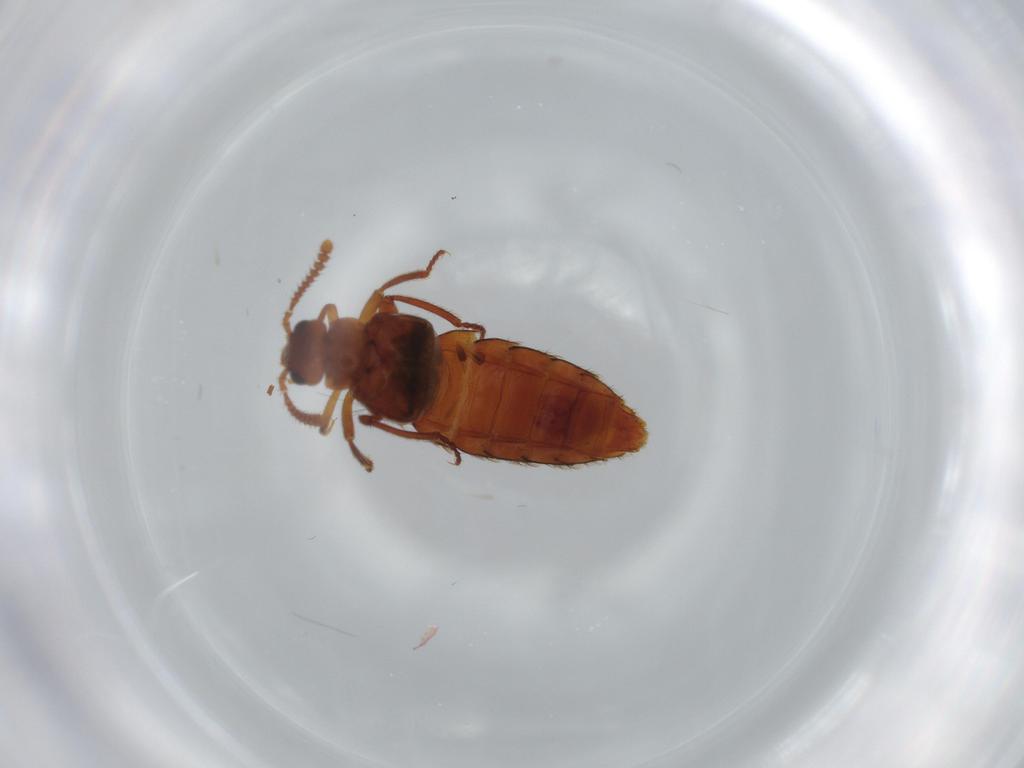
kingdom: Animalia
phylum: Arthropoda
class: Insecta
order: Coleoptera
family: Staphylinidae
